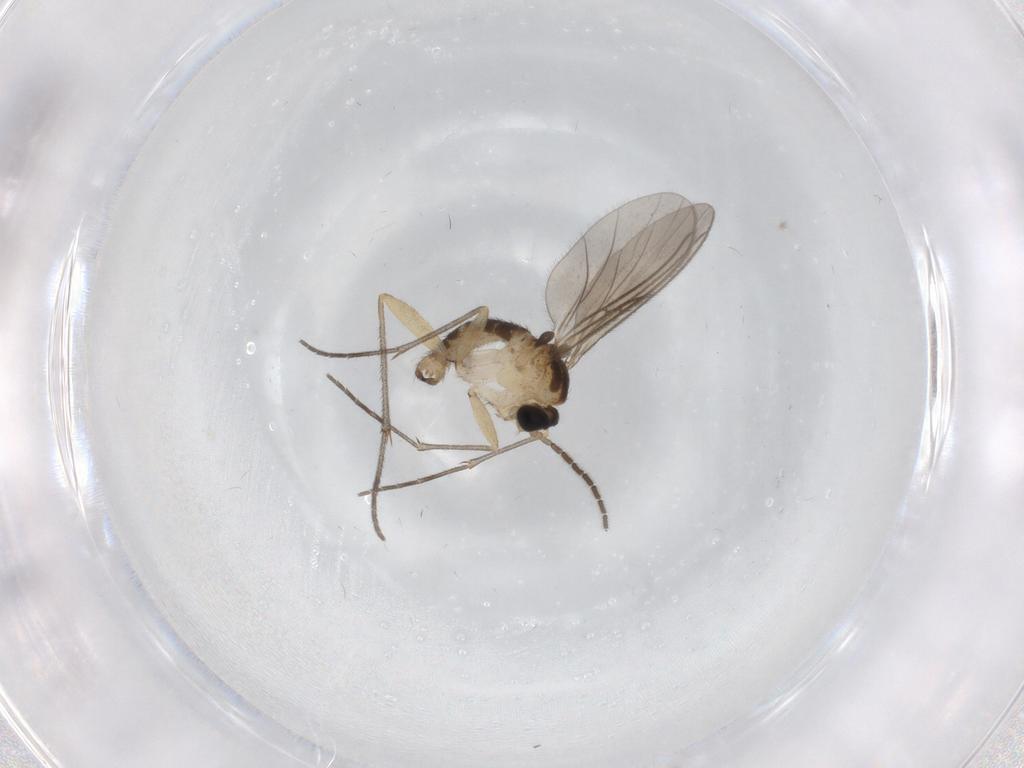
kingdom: Animalia
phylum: Arthropoda
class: Insecta
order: Diptera
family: Sciaridae
